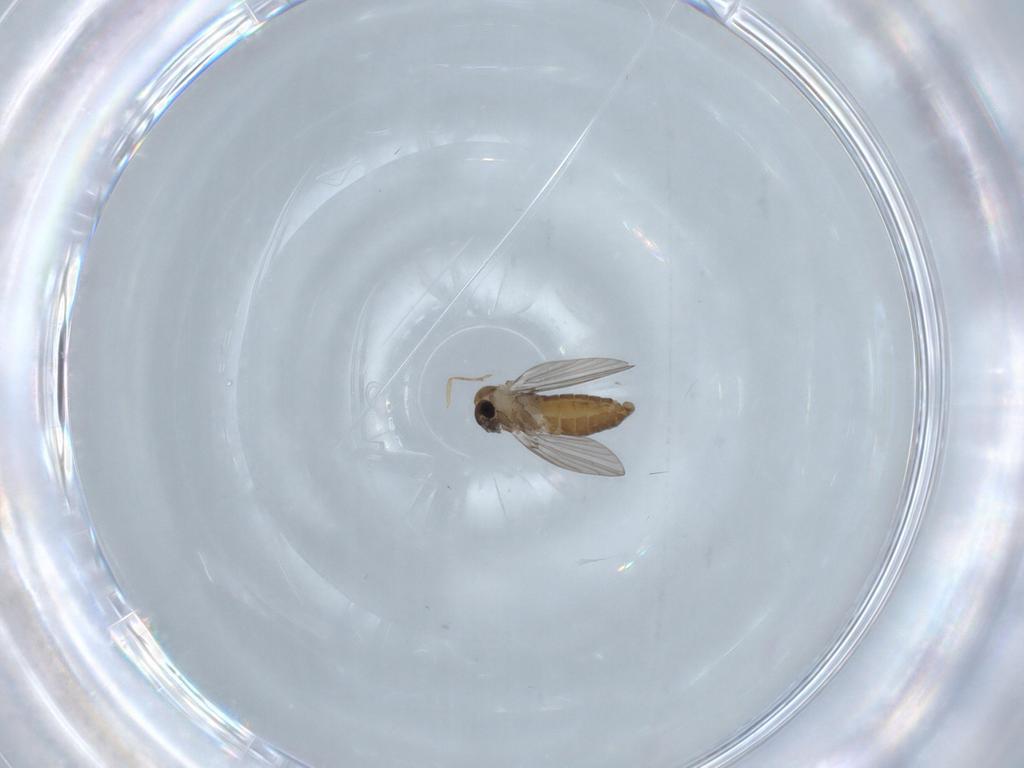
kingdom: Animalia
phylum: Arthropoda
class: Insecta
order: Diptera
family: Psychodidae
